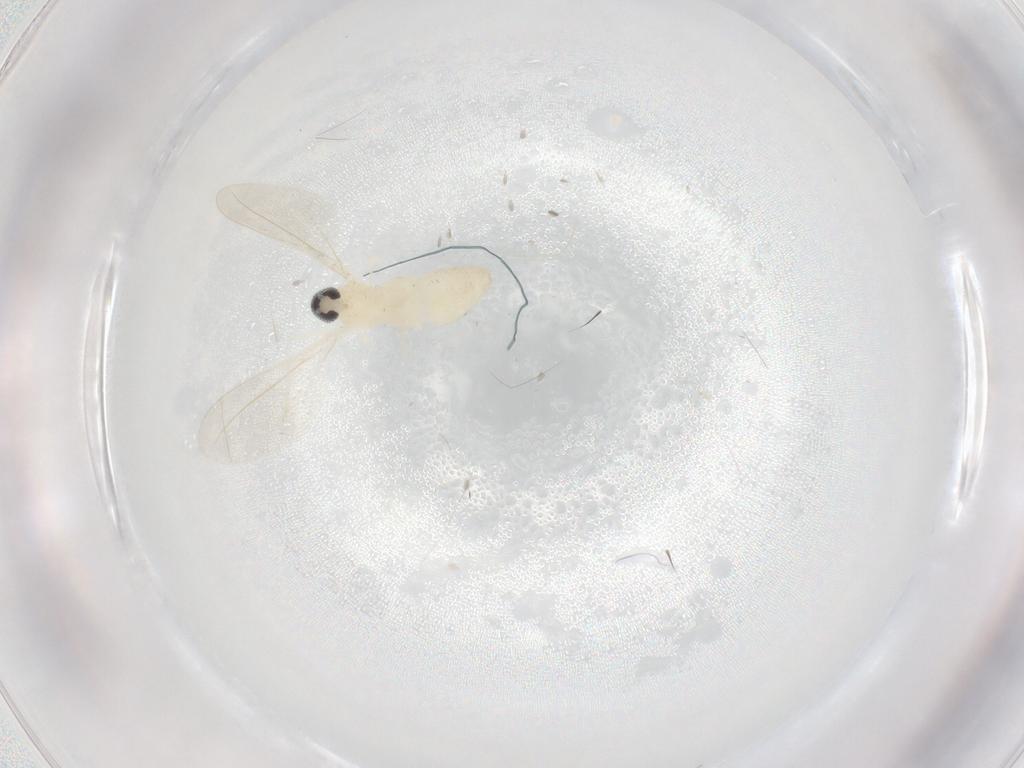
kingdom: Animalia
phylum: Arthropoda
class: Insecta
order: Diptera
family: Cecidomyiidae
